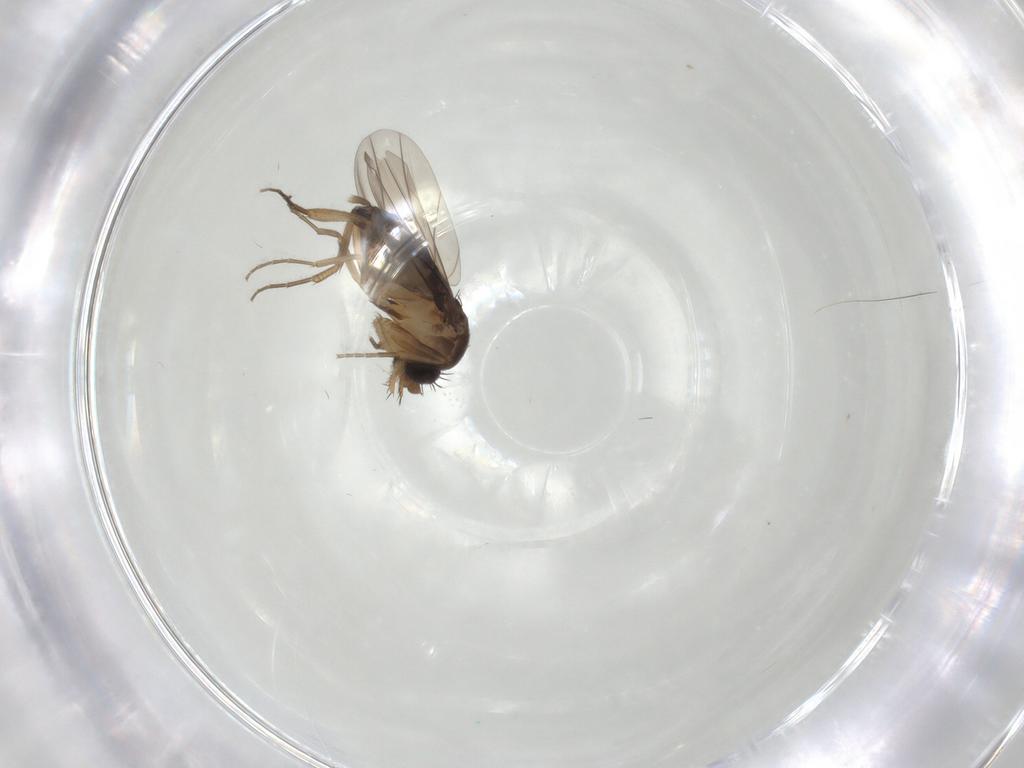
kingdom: Animalia
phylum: Arthropoda
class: Insecta
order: Diptera
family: Phoridae
